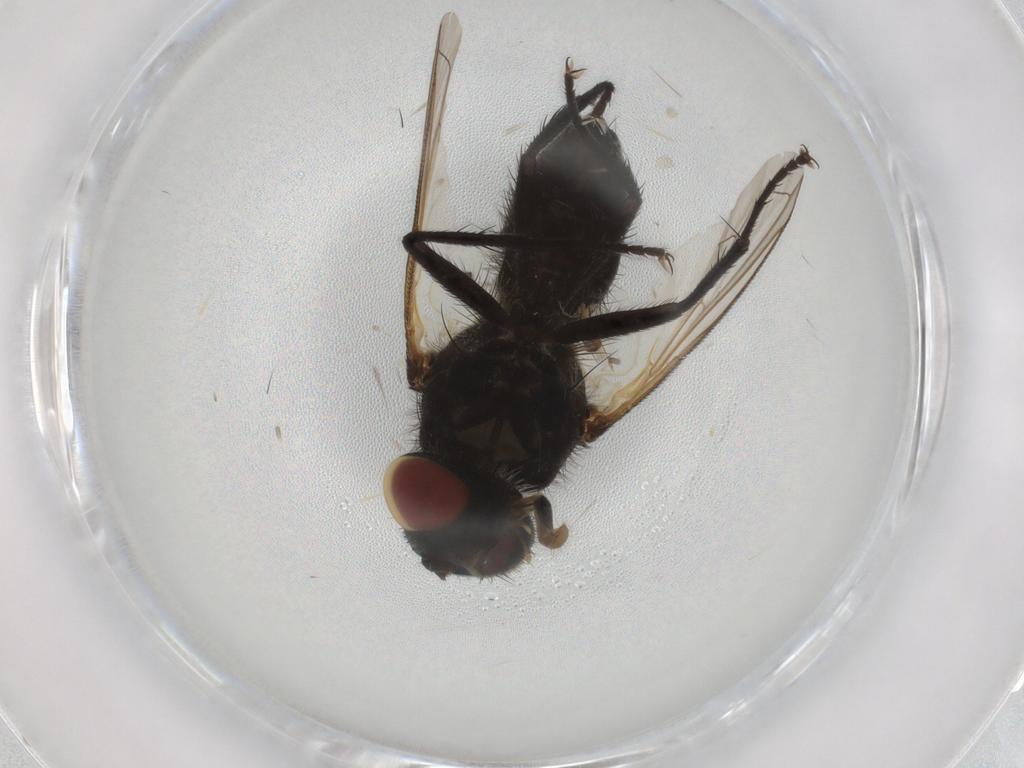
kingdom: Animalia
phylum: Arthropoda
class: Insecta
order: Diptera
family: Tachinidae
